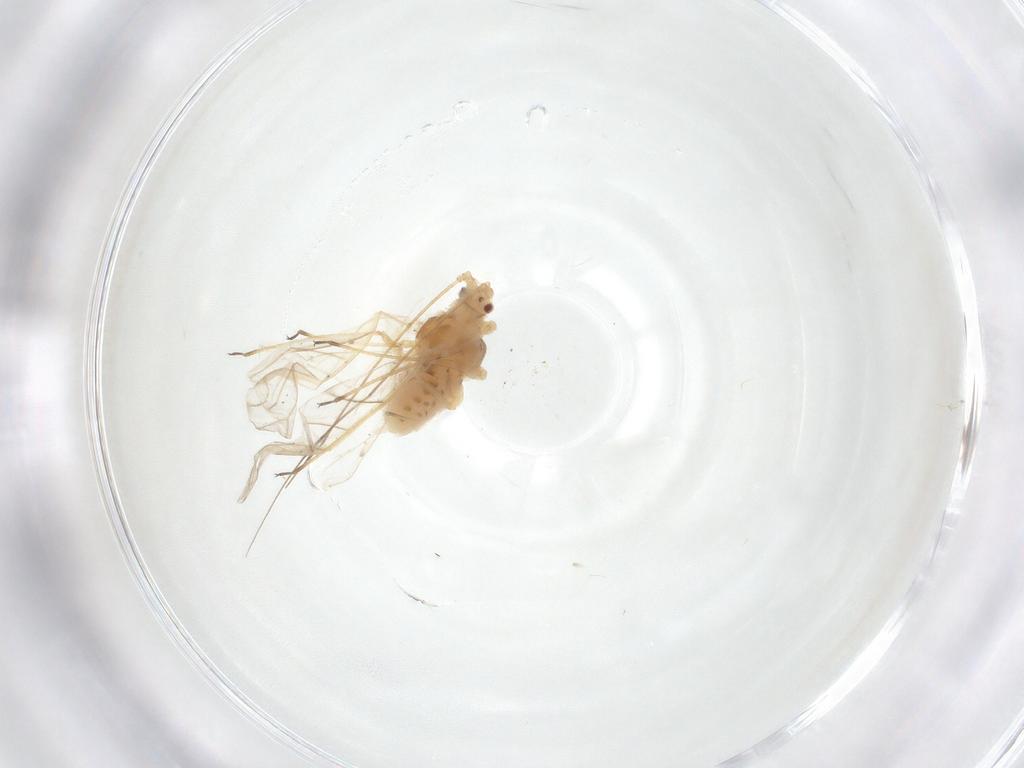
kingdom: Animalia
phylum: Arthropoda
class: Insecta
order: Hemiptera
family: Aphididae
